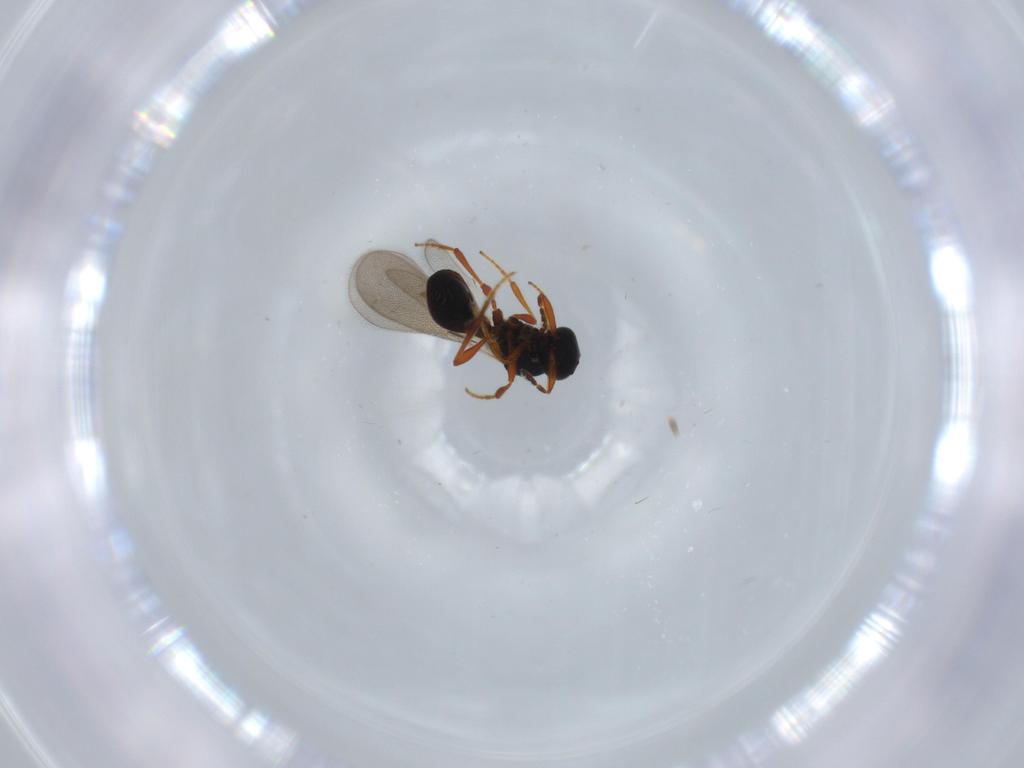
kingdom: Animalia
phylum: Arthropoda
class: Insecta
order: Hymenoptera
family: Platygastridae
